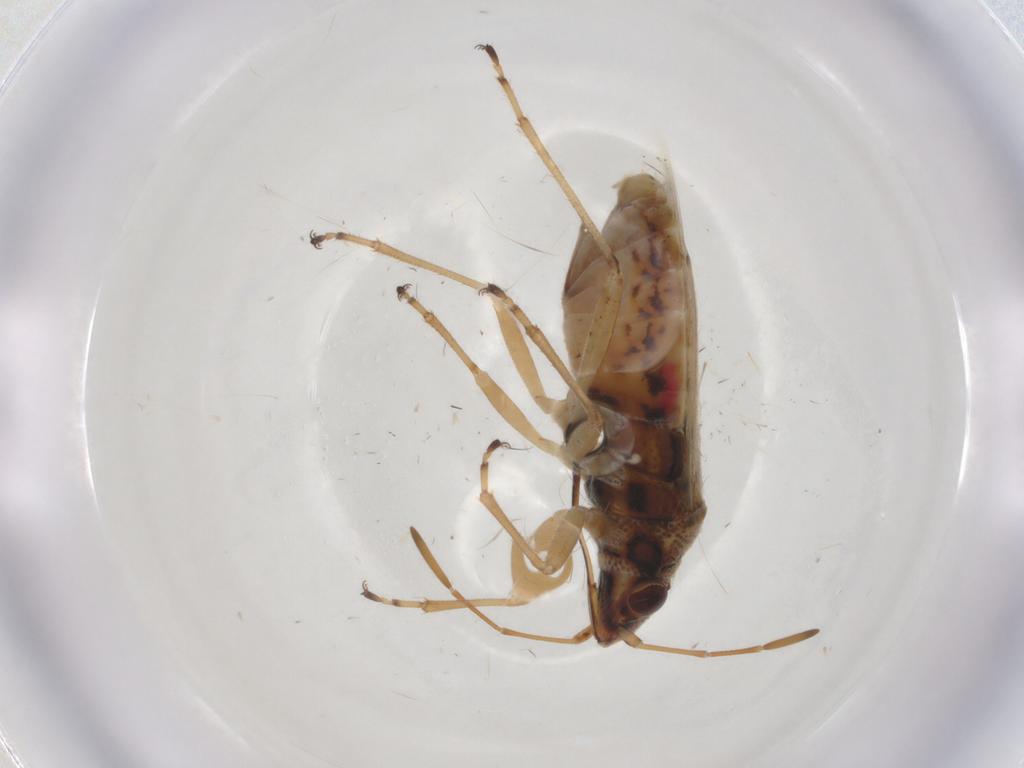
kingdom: Animalia
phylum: Arthropoda
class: Insecta
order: Hemiptera
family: Lygaeidae
